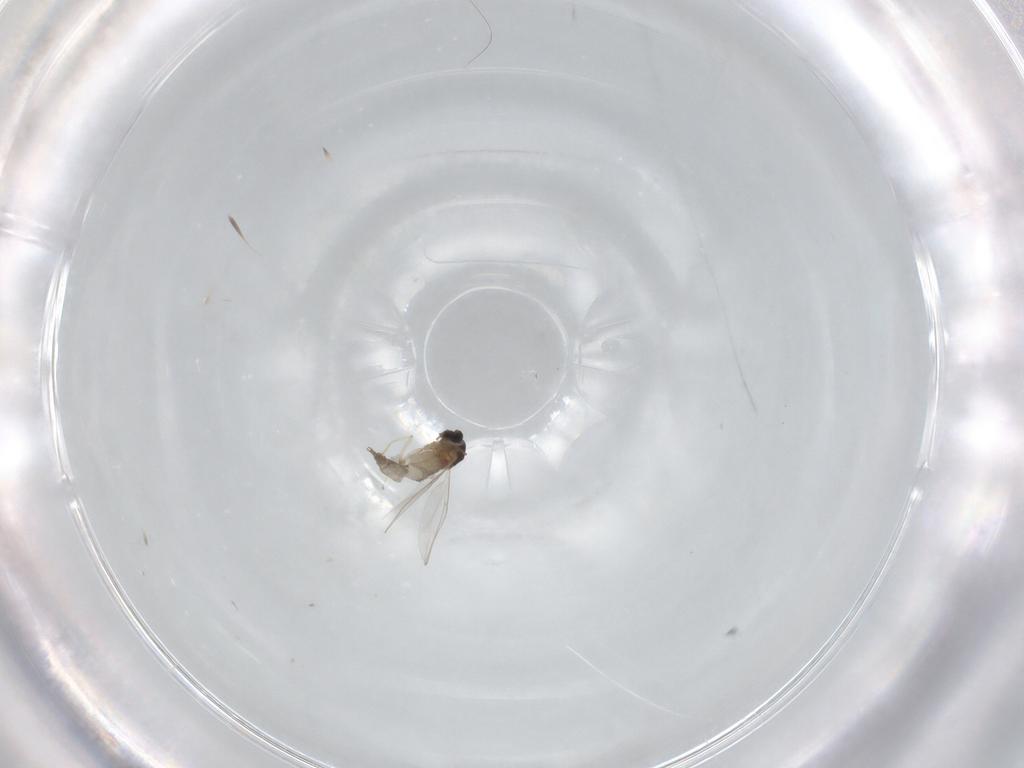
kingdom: Animalia
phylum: Arthropoda
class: Insecta
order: Diptera
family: Cecidomyiidae
